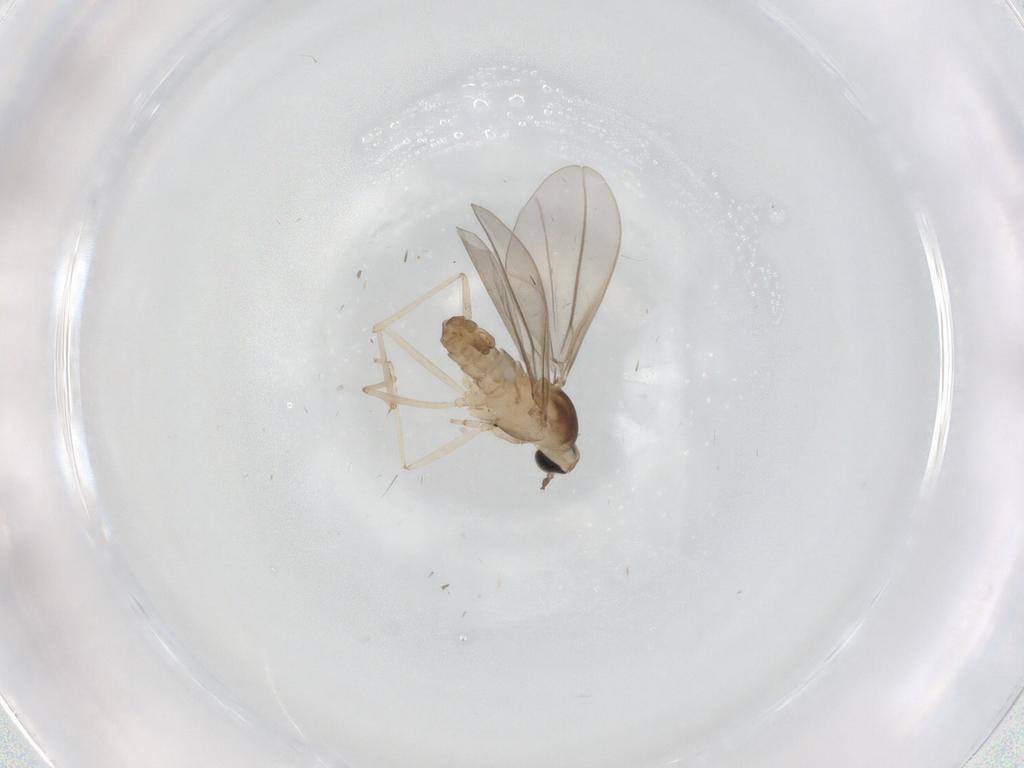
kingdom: Animalia
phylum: Arthropoda
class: Insecta
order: Diptera
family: Cecidomyiidae
